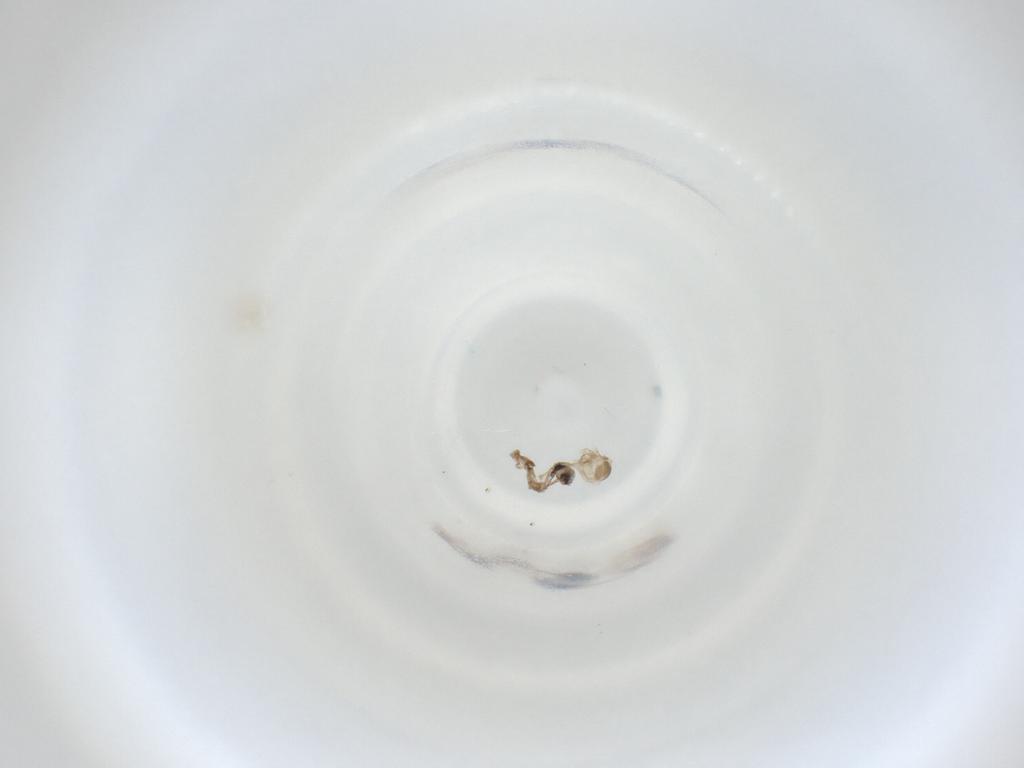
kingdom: Animalia
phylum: Arthropoda
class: Insecta
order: Diptera
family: Cecidomyiidae
